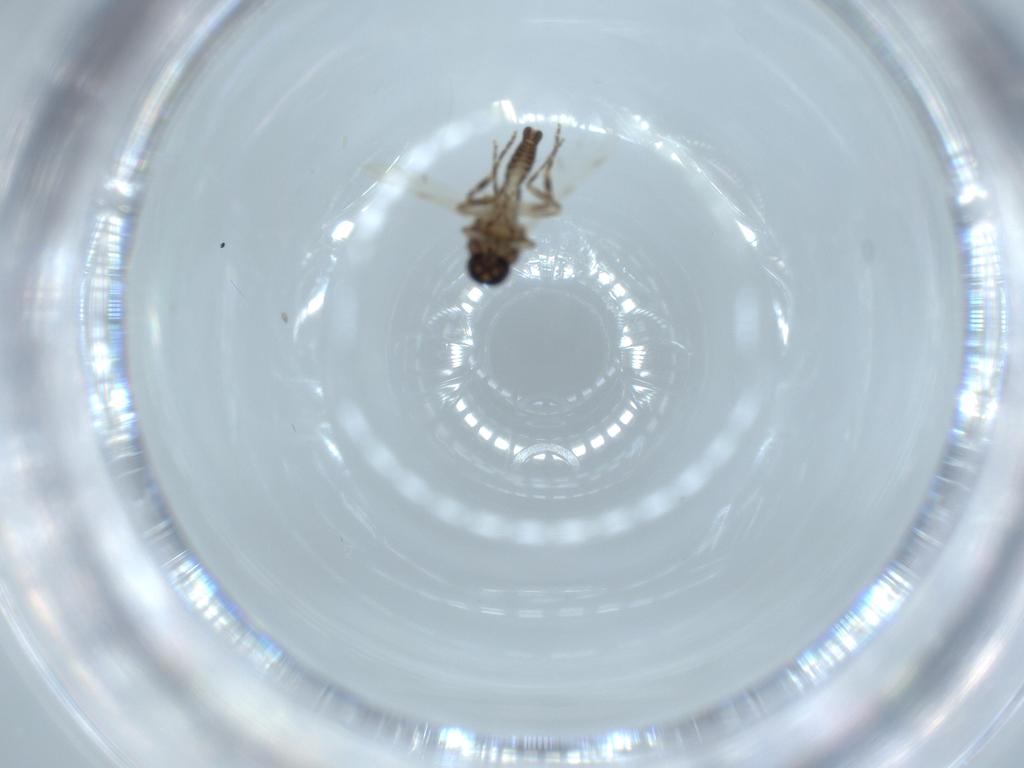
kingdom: Animalia
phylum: Arthropoda
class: Insecta
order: Diptera
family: Ceratopogonidae
